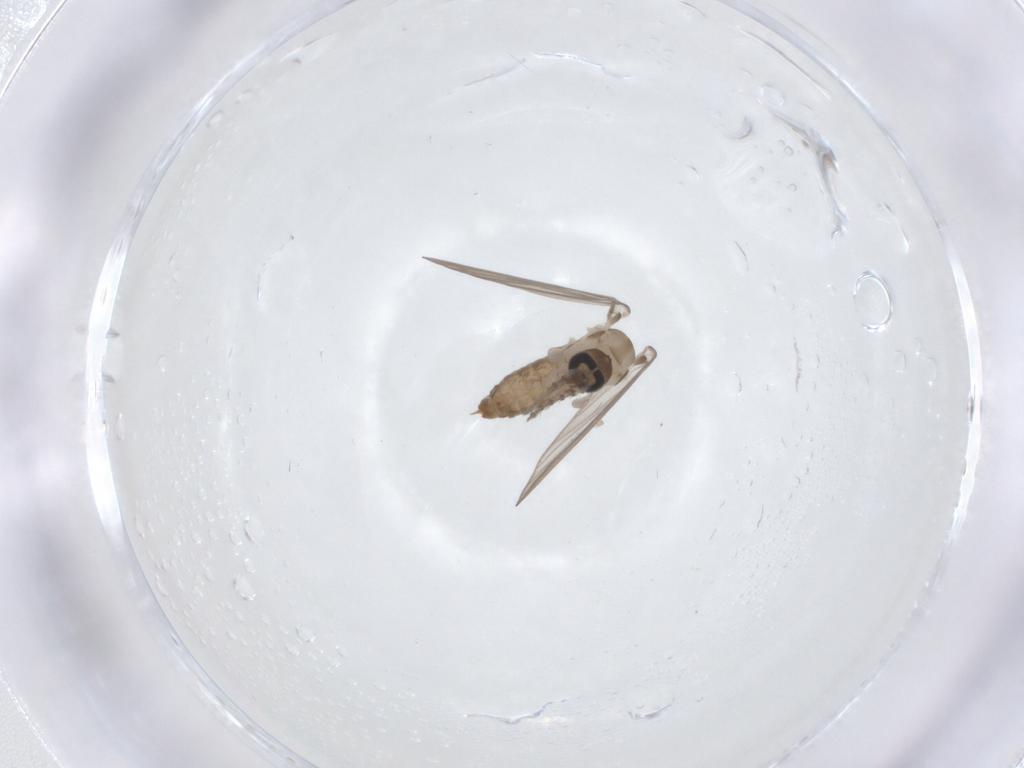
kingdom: Animalia
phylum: Arthropoda
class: Insecta
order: Diptera
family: Psychodidae
